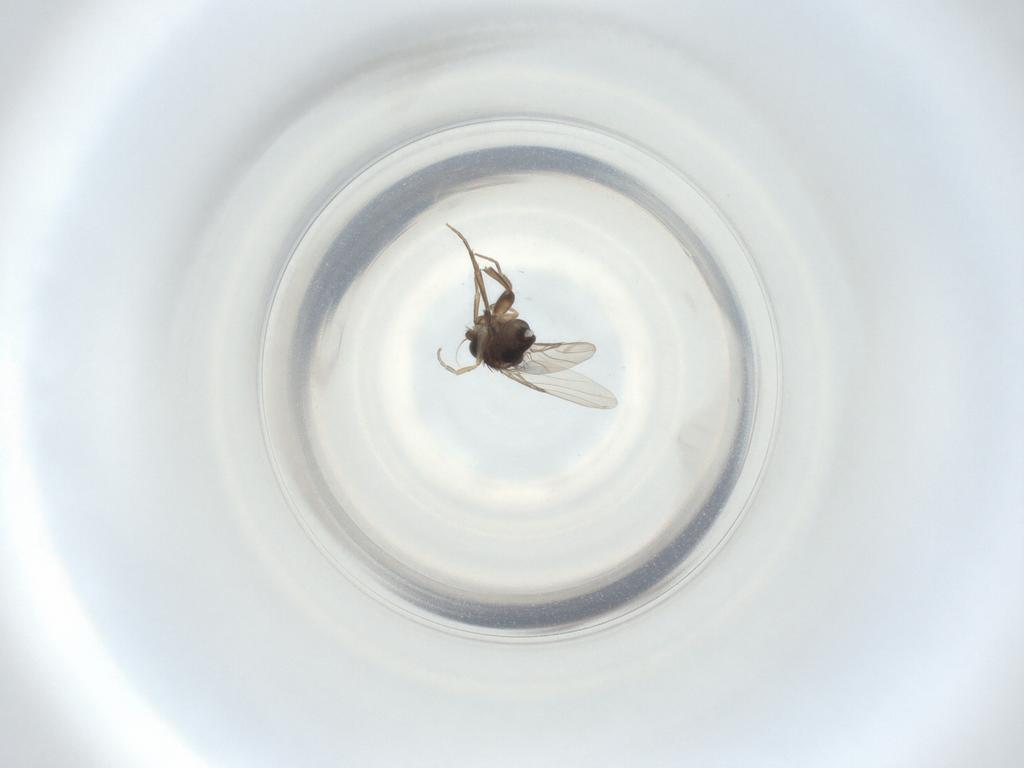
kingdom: Animalia
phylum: Arthropoda
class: Insecta
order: Diptera
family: Phoridae
